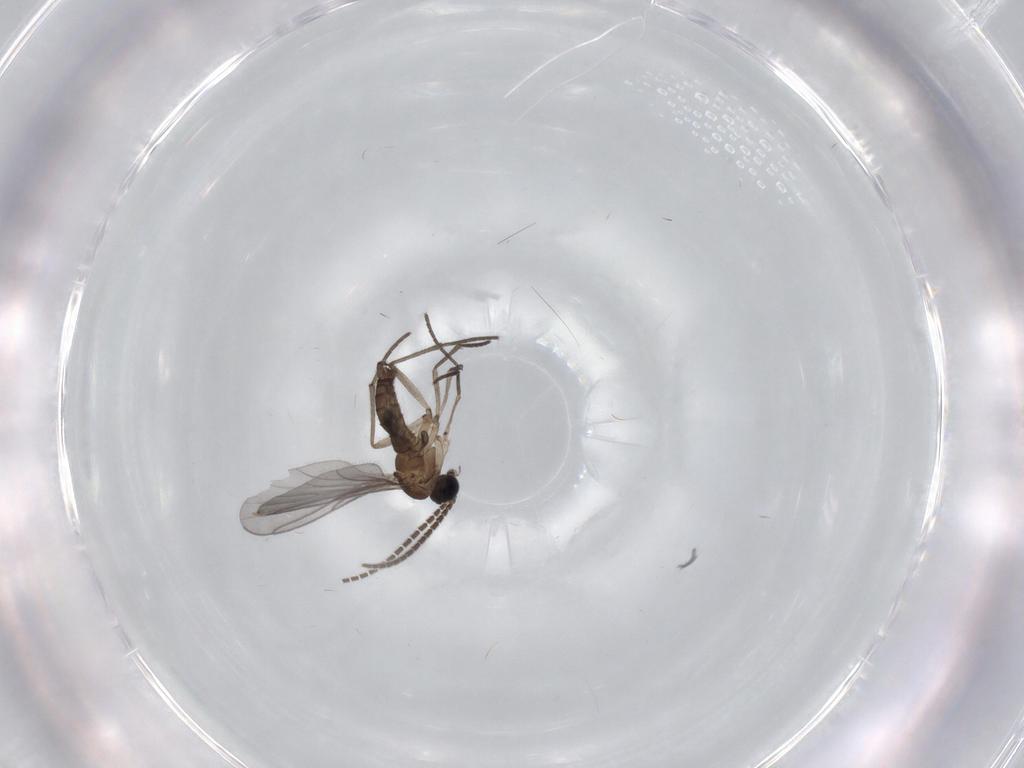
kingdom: Animalia
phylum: Arthropoda
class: Insecta
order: Diptera
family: Sciaridae
